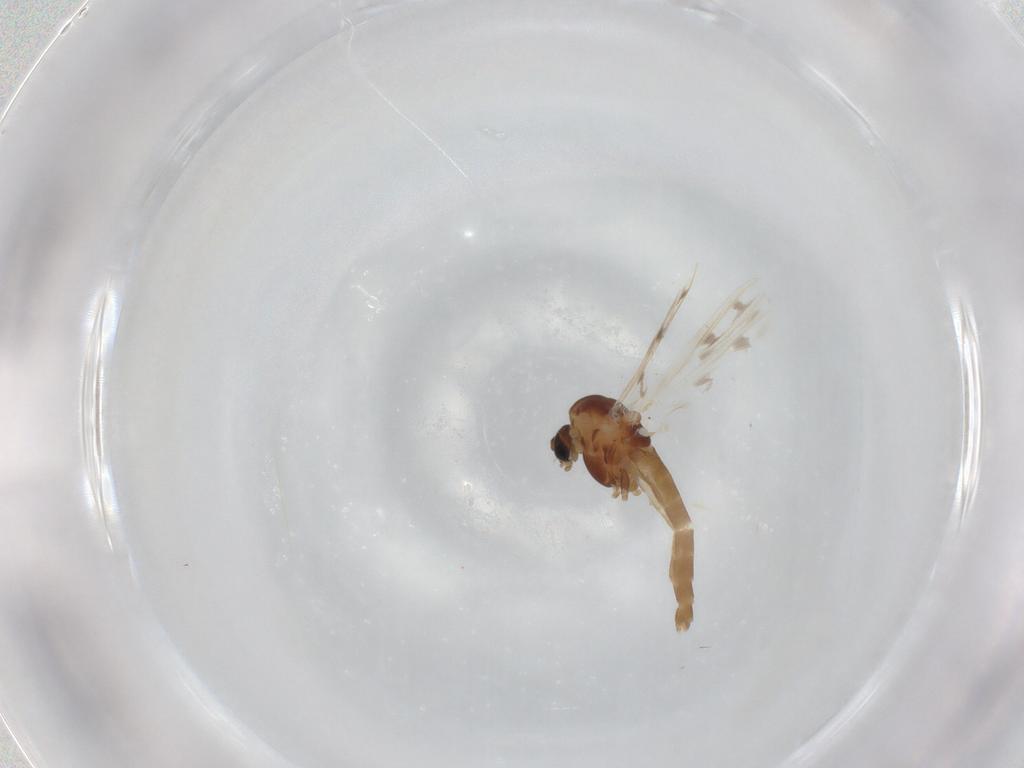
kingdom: Animalia
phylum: Arthropoda
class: Insecta
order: Diptera
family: Chironomidae
